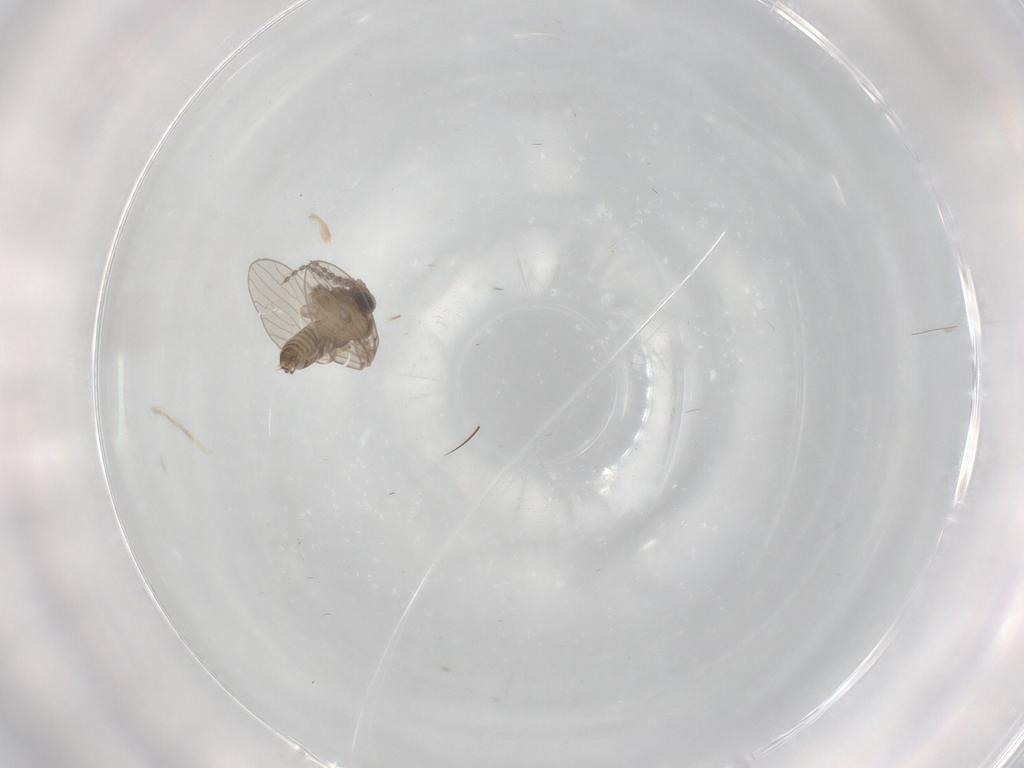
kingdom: Animalia
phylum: Arthropoda
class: Insecta
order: Diptera
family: Psychodidae
